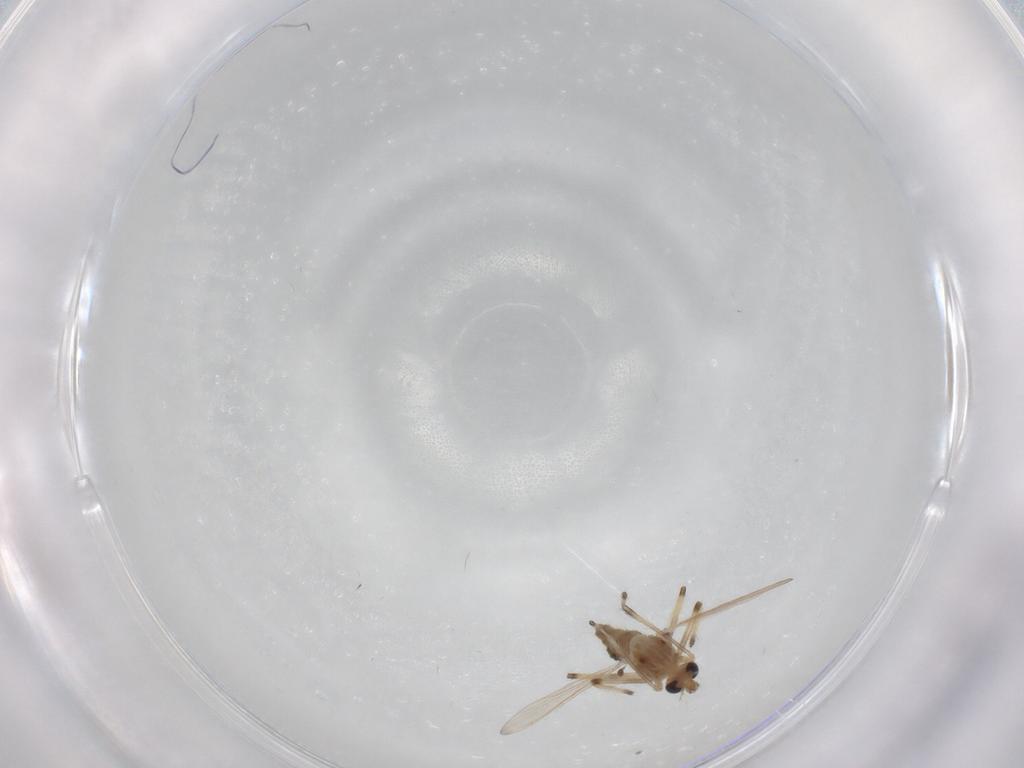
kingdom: Animalia
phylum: Arthropoda
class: Insecta
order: Diptera
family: Chironomidae
